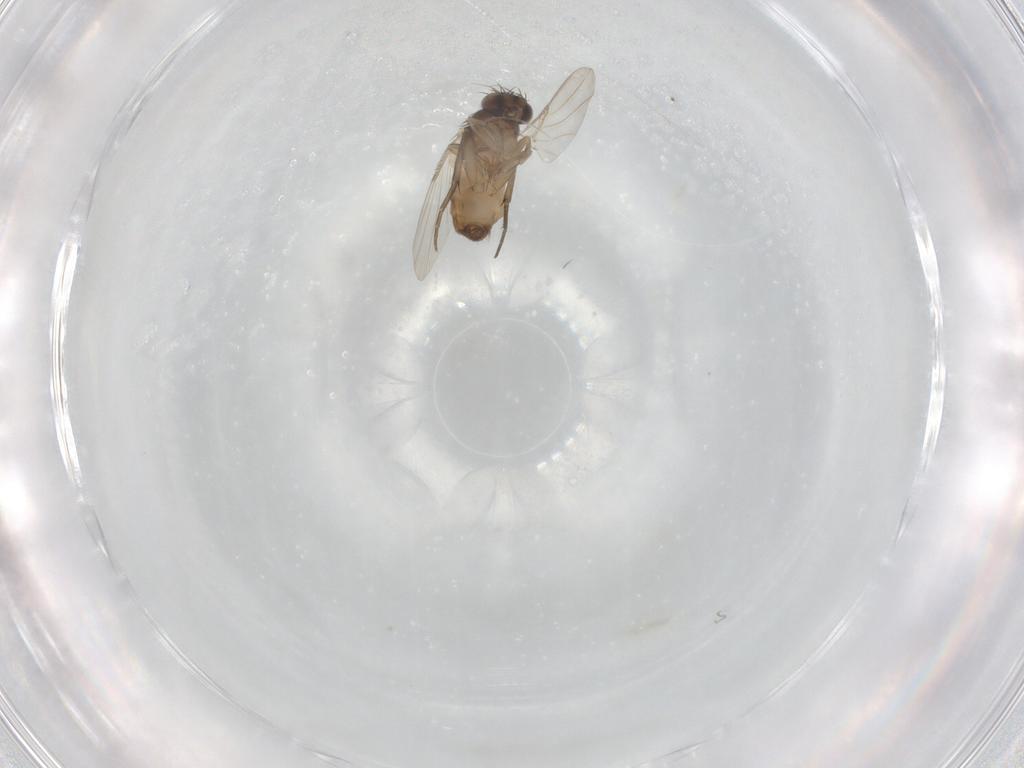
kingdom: Animalia
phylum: Arthropoda
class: Insecta
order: Diptera
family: Phoridae
